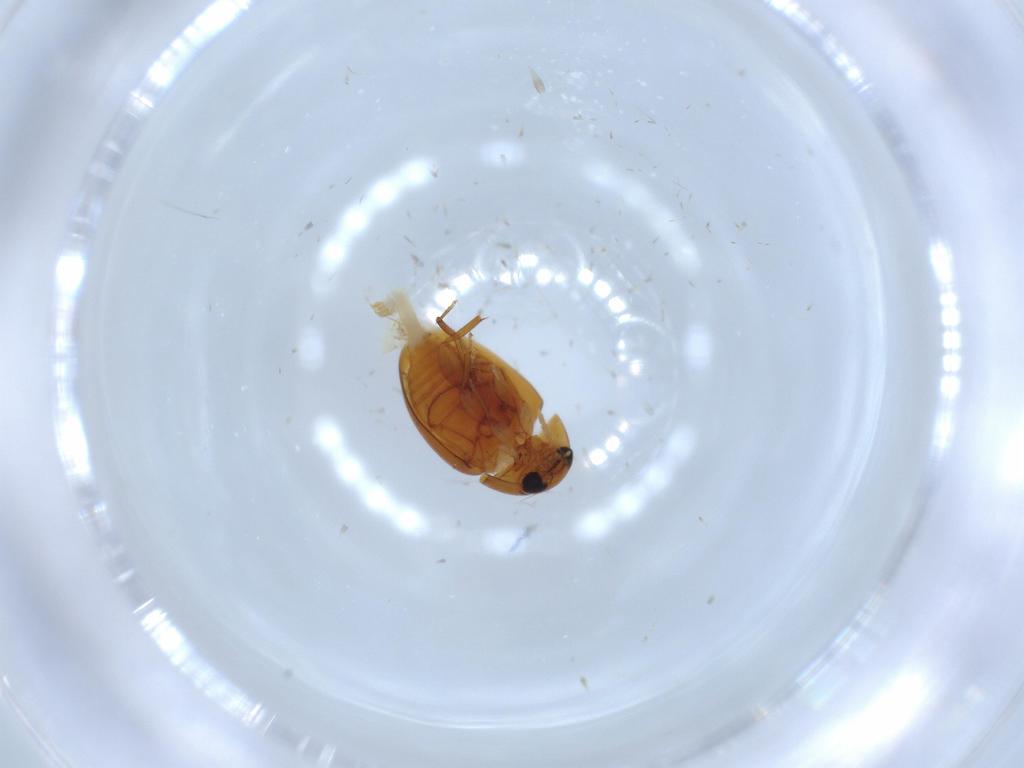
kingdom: Animalia
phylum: Arthropoda
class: Insecta
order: Coleoptera
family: Phalacridae
